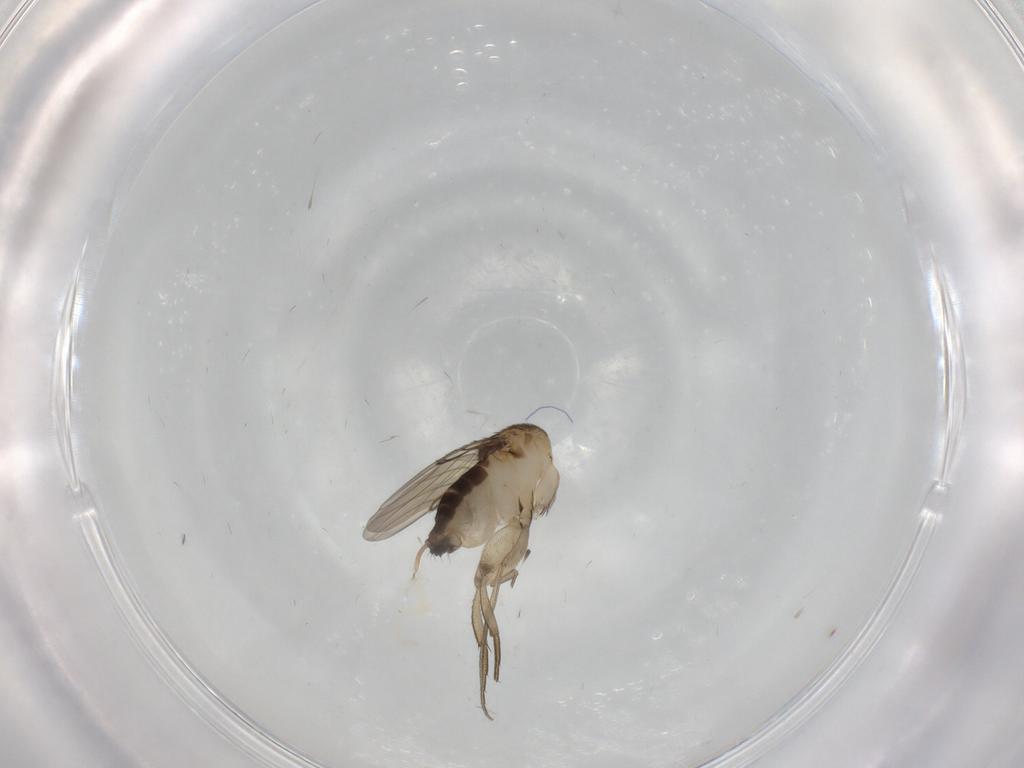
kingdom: Animalia
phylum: Arthropoda
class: Insecta
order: Diptera
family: Phoridae
